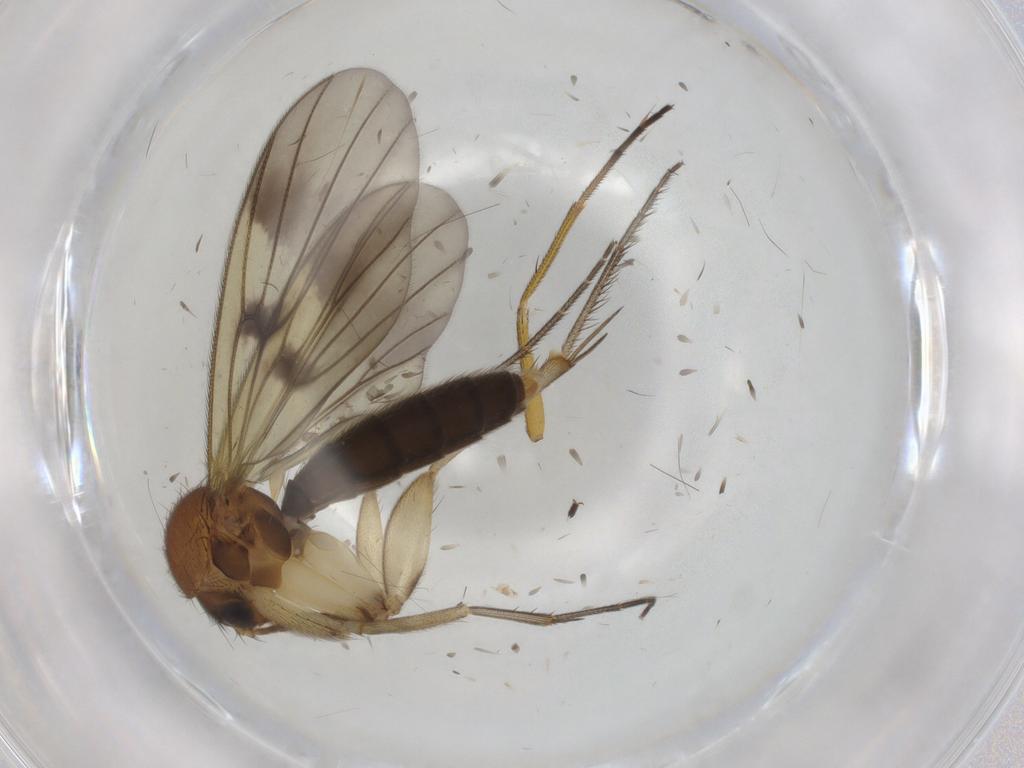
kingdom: Animalia
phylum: Arthropoda
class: Insecta
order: Diptera
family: Mycetophilidae
